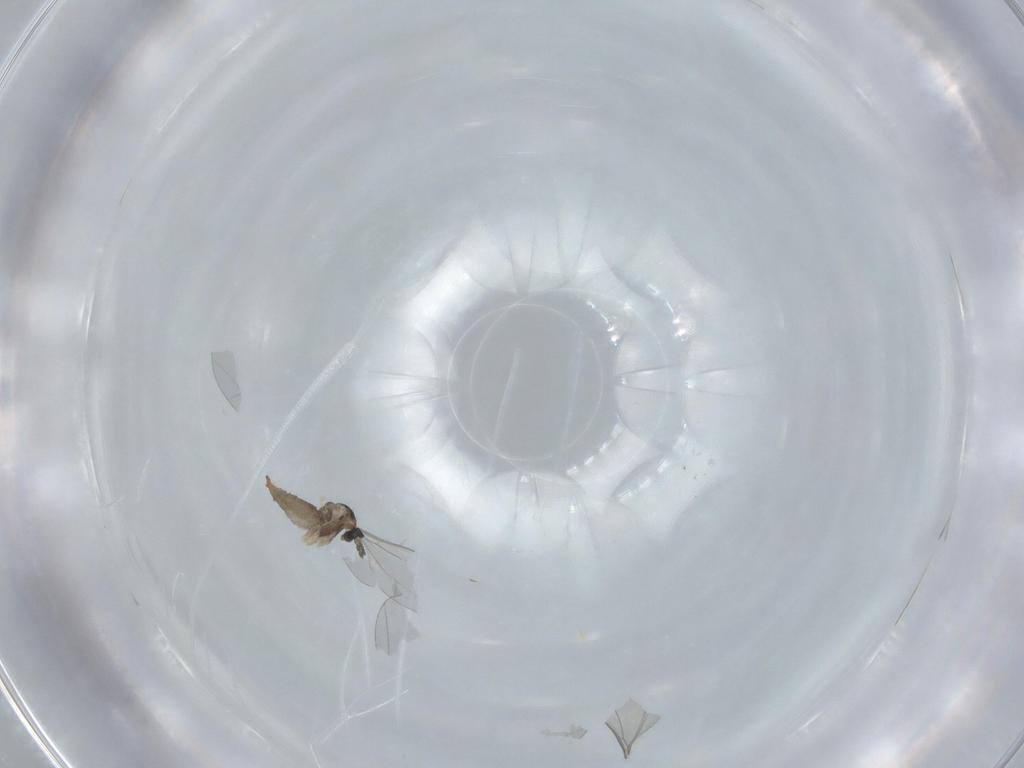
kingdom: Animalia
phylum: Arthropoda
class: Insecta
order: Diptera
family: Cecidomyiidae
